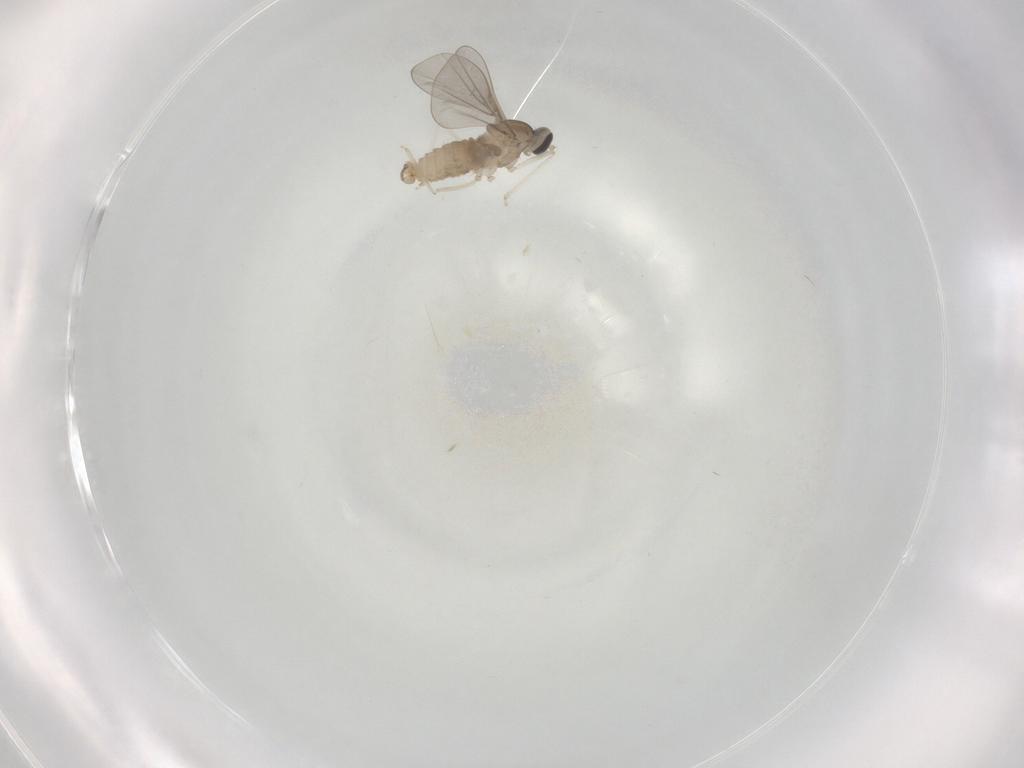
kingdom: Animalia
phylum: Arthropoda
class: Insecta
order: Diptera
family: Cecidomyiidae
